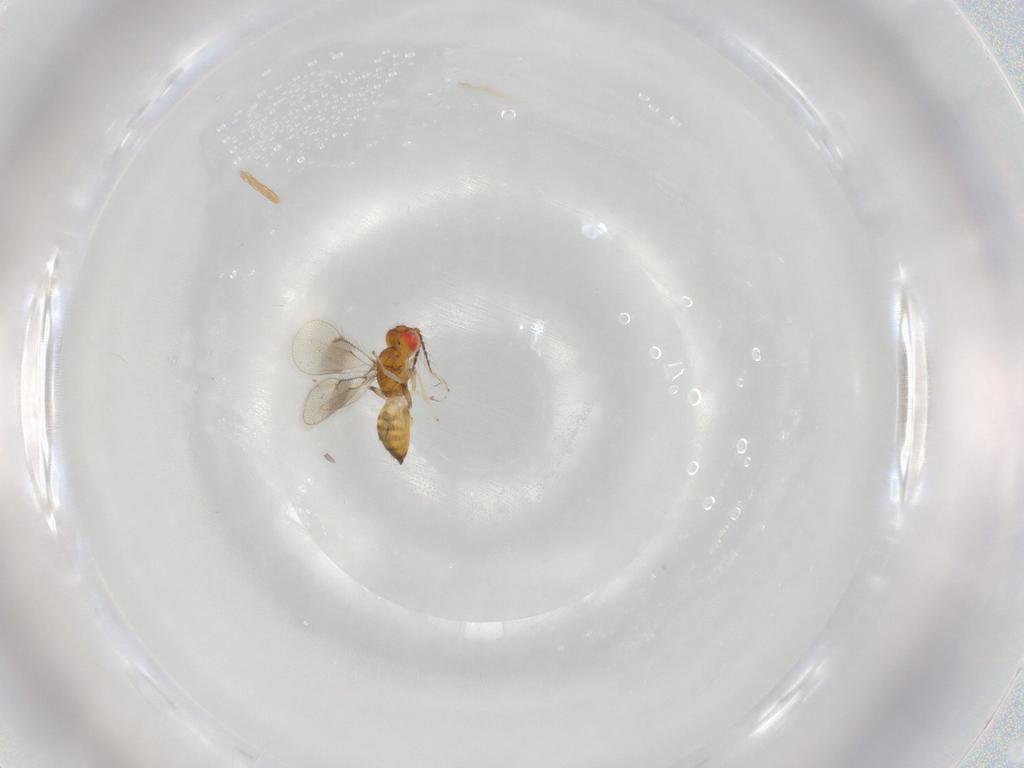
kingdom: Animalia
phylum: Arthropoda
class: Insecta
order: Hymenoptera
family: Eulophidae
